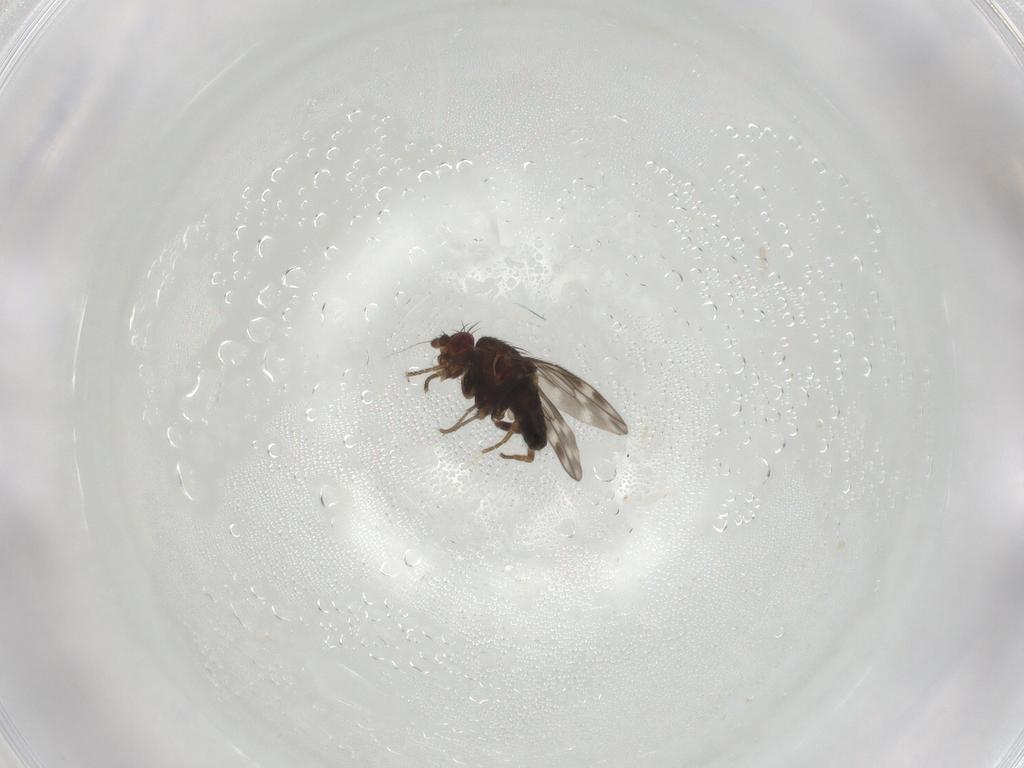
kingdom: Animalia
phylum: Arthropoda
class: Insecta
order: Diptera
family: Sphaeroceridae
